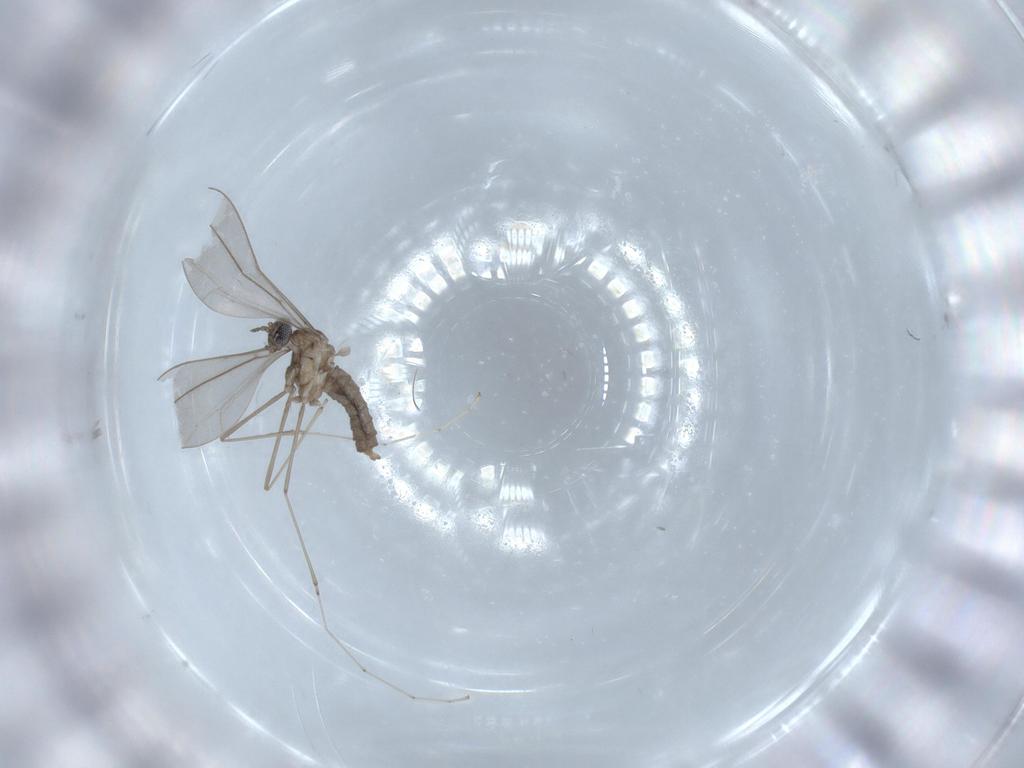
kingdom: Animalia
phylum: Arthropoda
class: Insecta
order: Diptera
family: Cecidomyiidae
